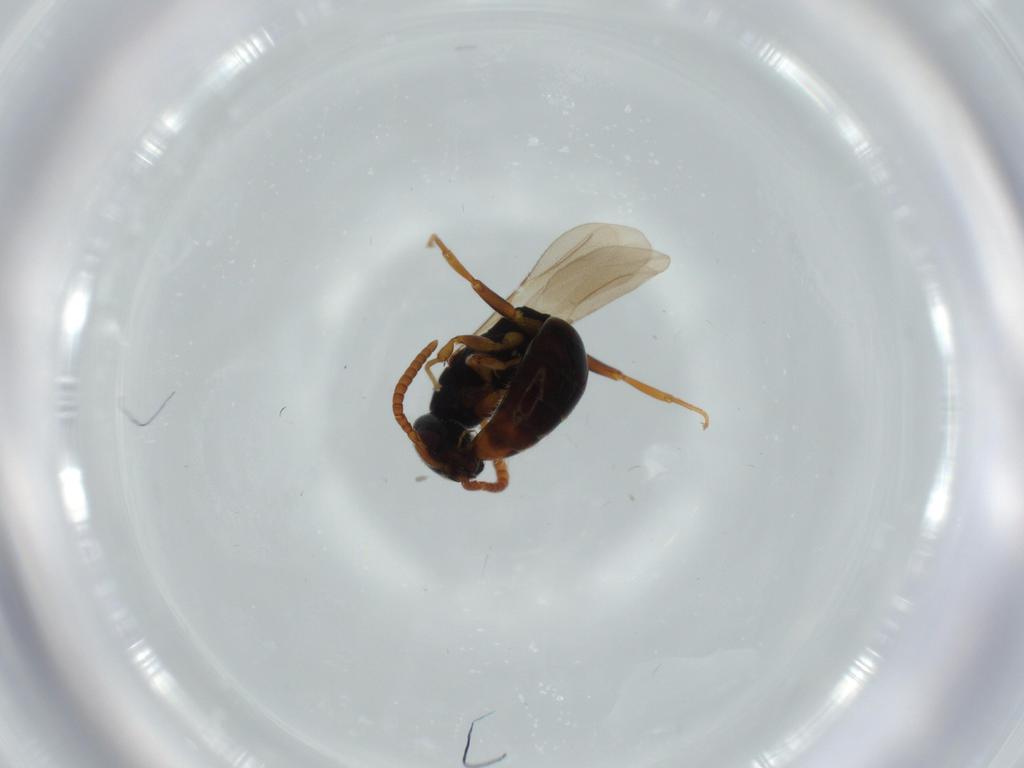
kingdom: Animalia
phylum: Arthropoda
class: Insecta
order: Hymenoptera
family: Bethylidae
